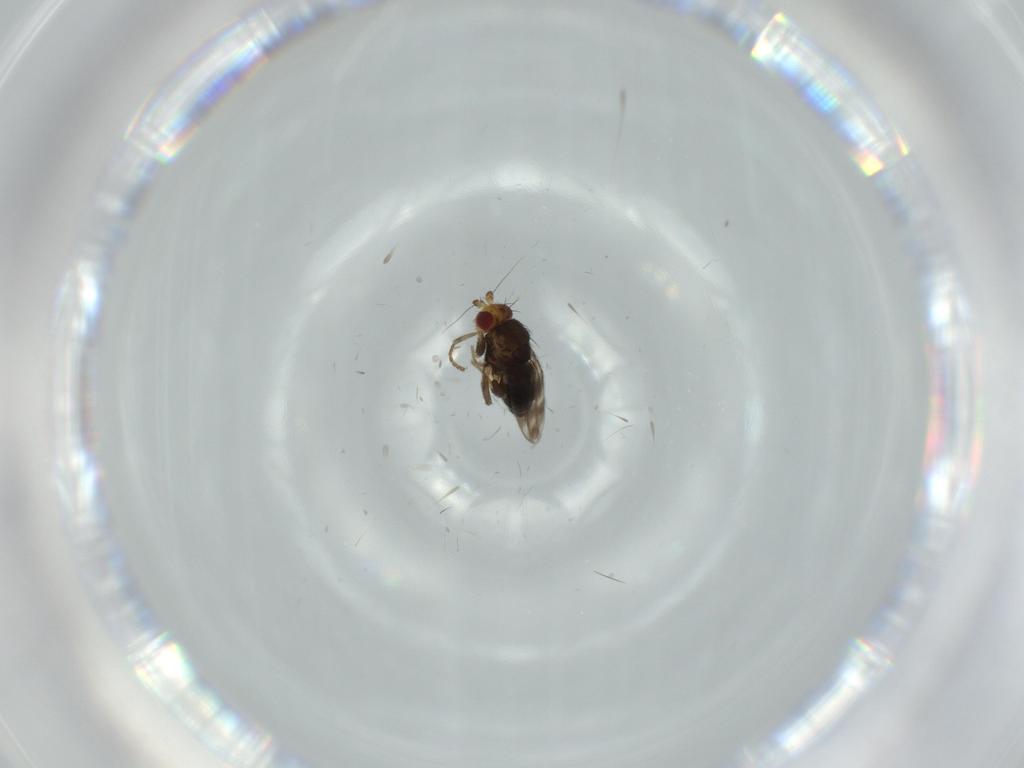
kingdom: Animalia
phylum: Arthropoda
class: Insecta
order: Diptera
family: Sphaeroceridae
